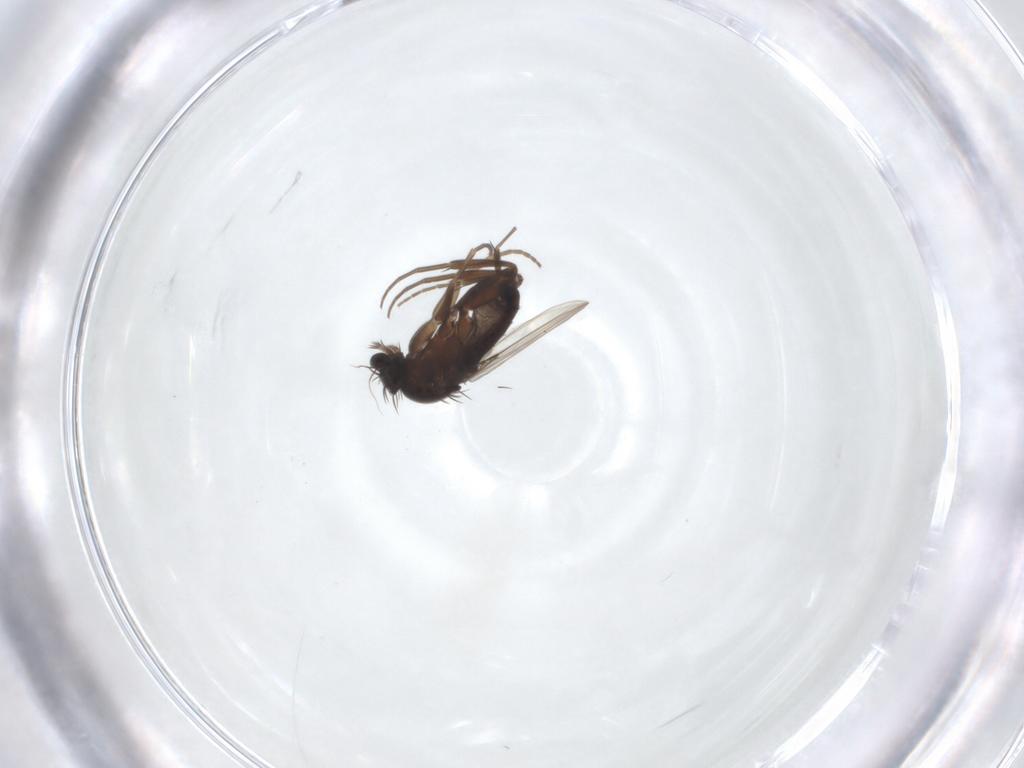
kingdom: Animalia
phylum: Arthropoda
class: Insecta
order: Diptera
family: Phoridae
